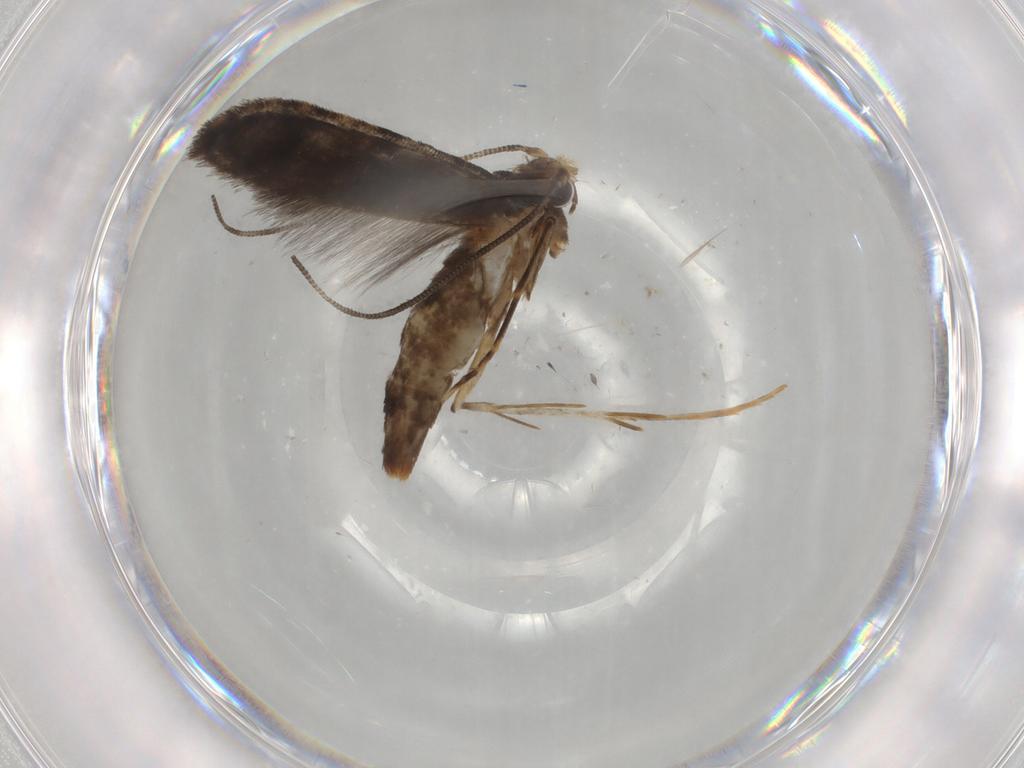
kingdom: Animalia
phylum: Arthropoda
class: Insecta
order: Lepidoptera
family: Tineidae
